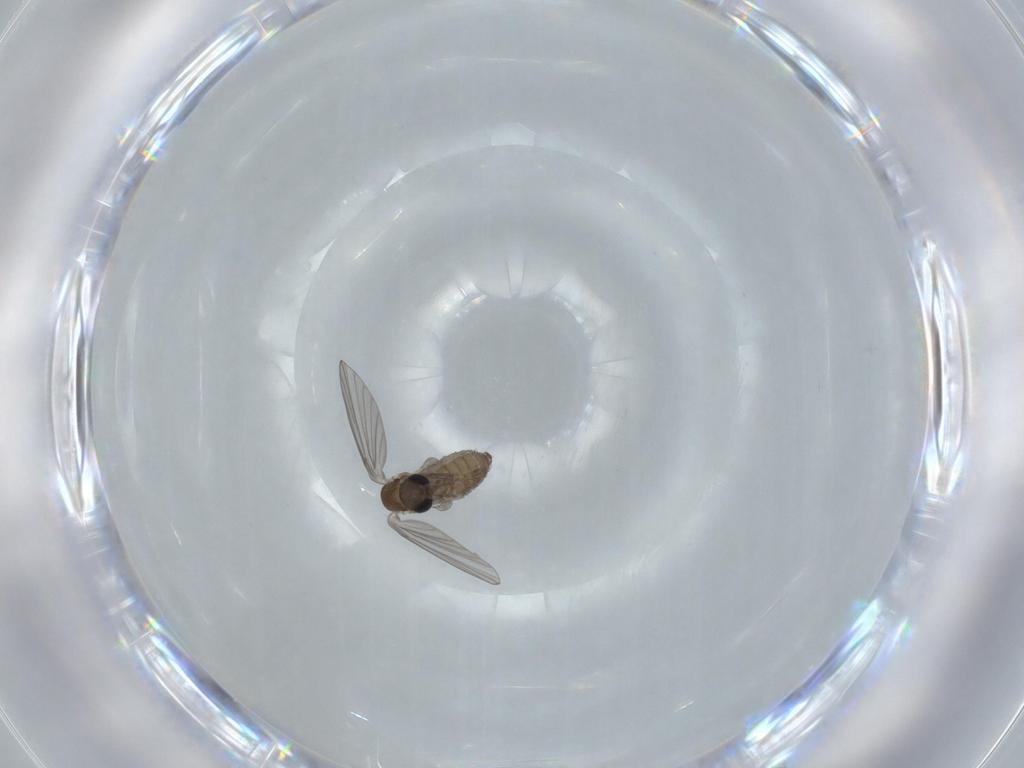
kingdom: Animalia
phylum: Arthropoda
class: Insecta
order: Diptera
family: Psychodidae
